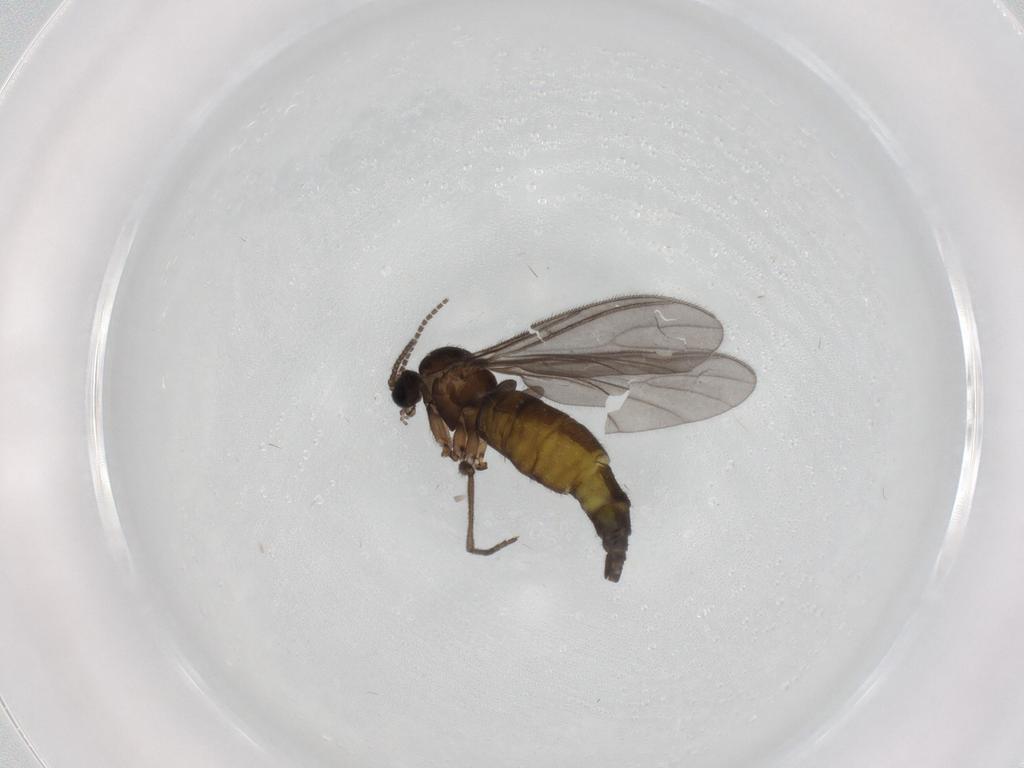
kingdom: Animalia
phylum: Arthropoda
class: Insecta
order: Diptera
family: Sciaridae
